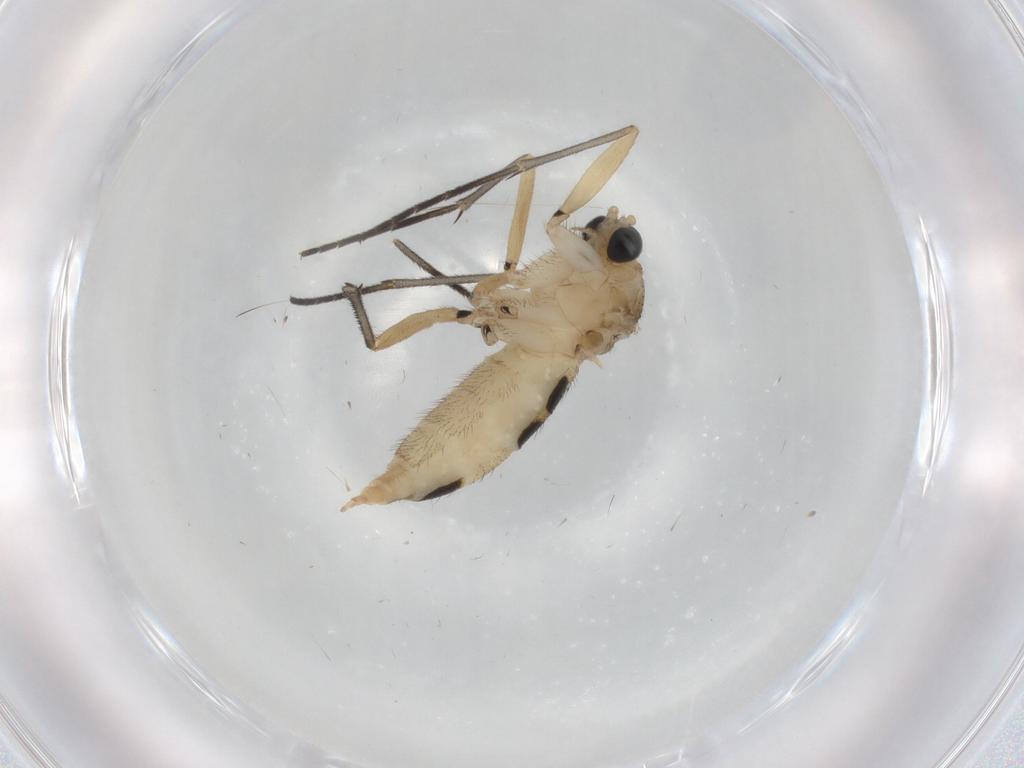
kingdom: Animalia
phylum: Arthropoda
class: Insecta
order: Diptera
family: Sciaridae
